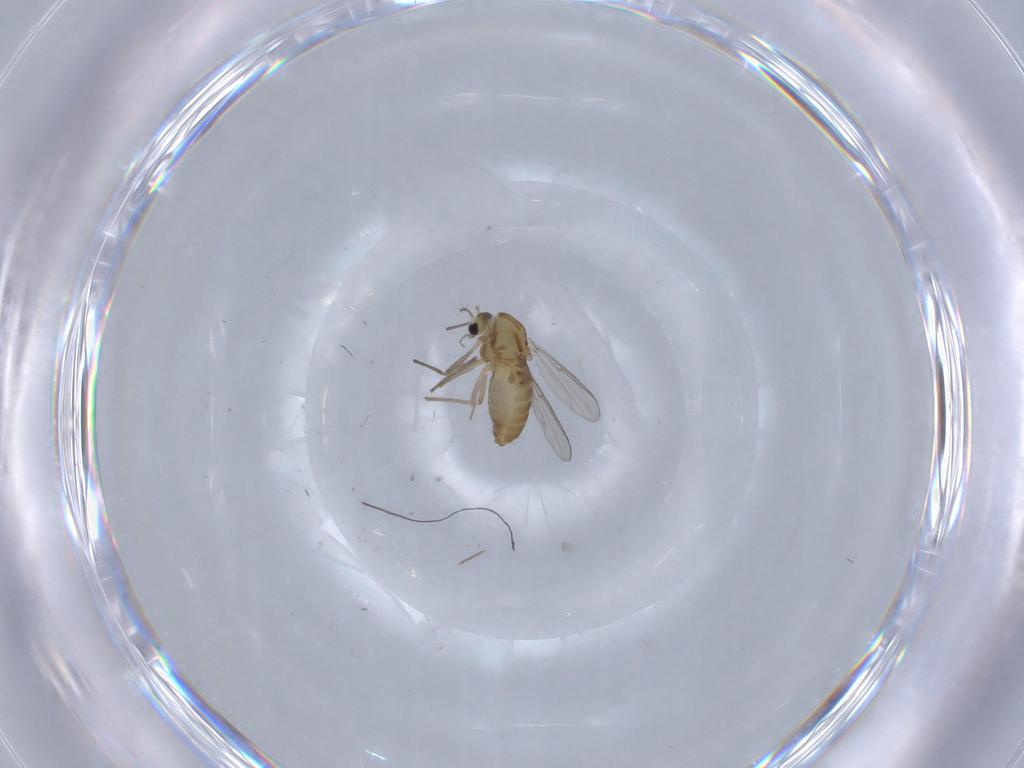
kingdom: Animalia
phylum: Arthropoda
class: Insecta
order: Diptera
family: Chironomidae
